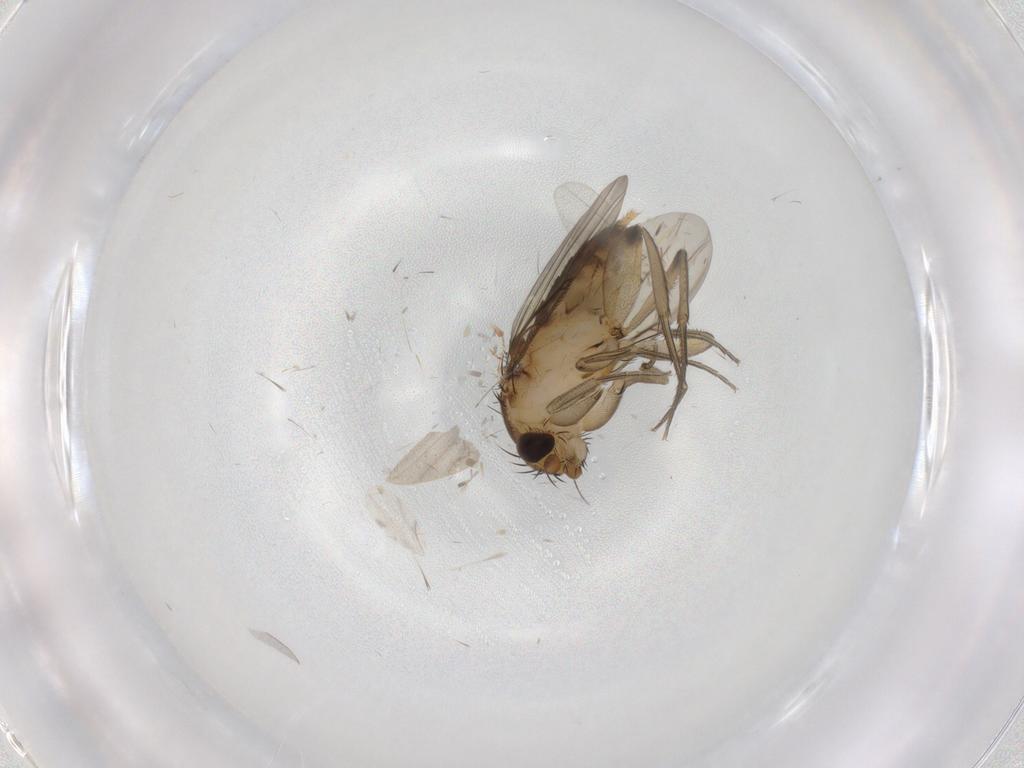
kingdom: Animalia
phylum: Arthropoda
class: Insecta
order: Diptera
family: Phoridae
